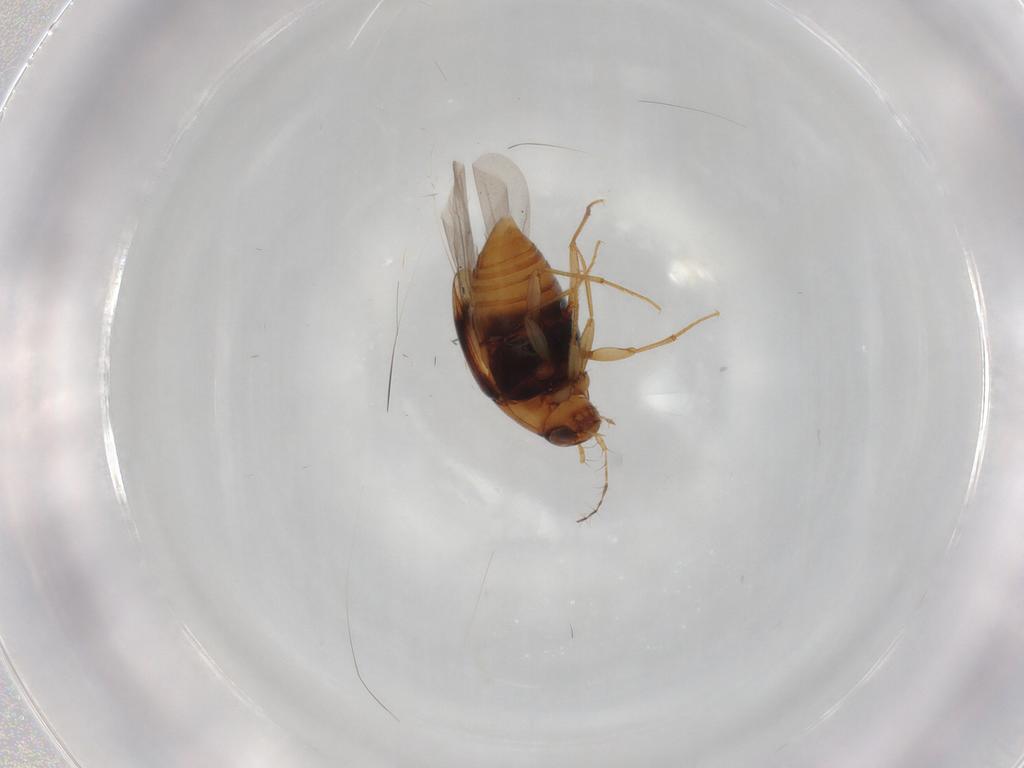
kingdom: Animalia
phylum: Arthropoda
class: Insecta
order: Coleoptera
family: Staphylinidae
